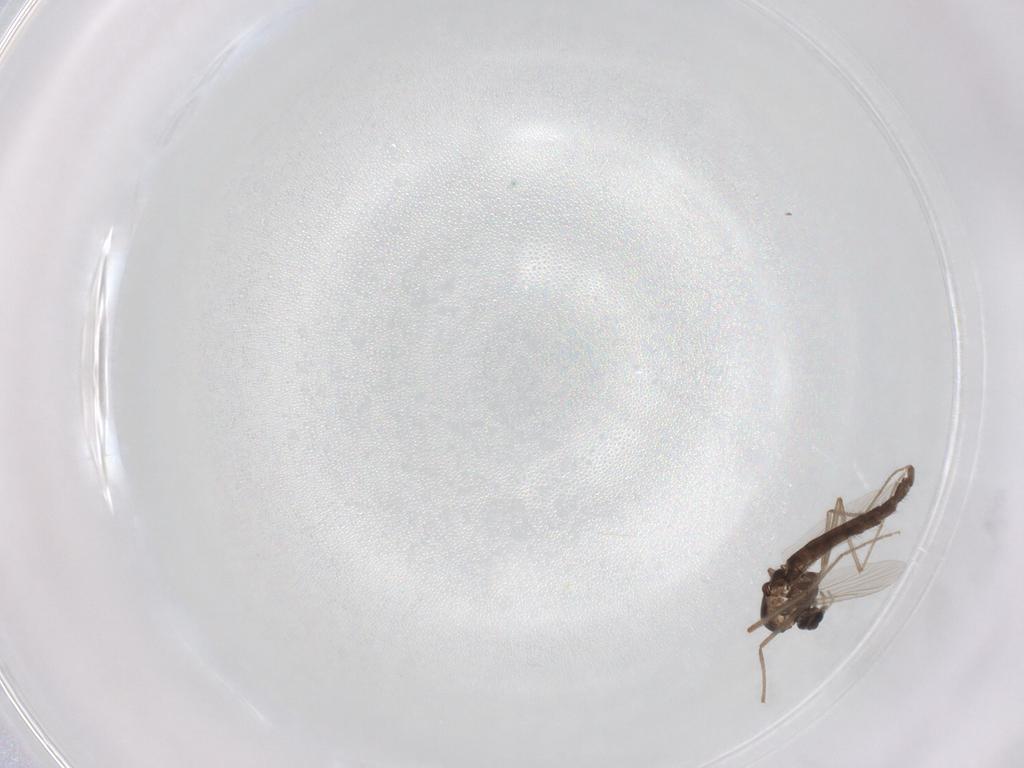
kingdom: Animalia
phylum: Arthropoda
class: Insecta
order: Diptera
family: Chironomidae
